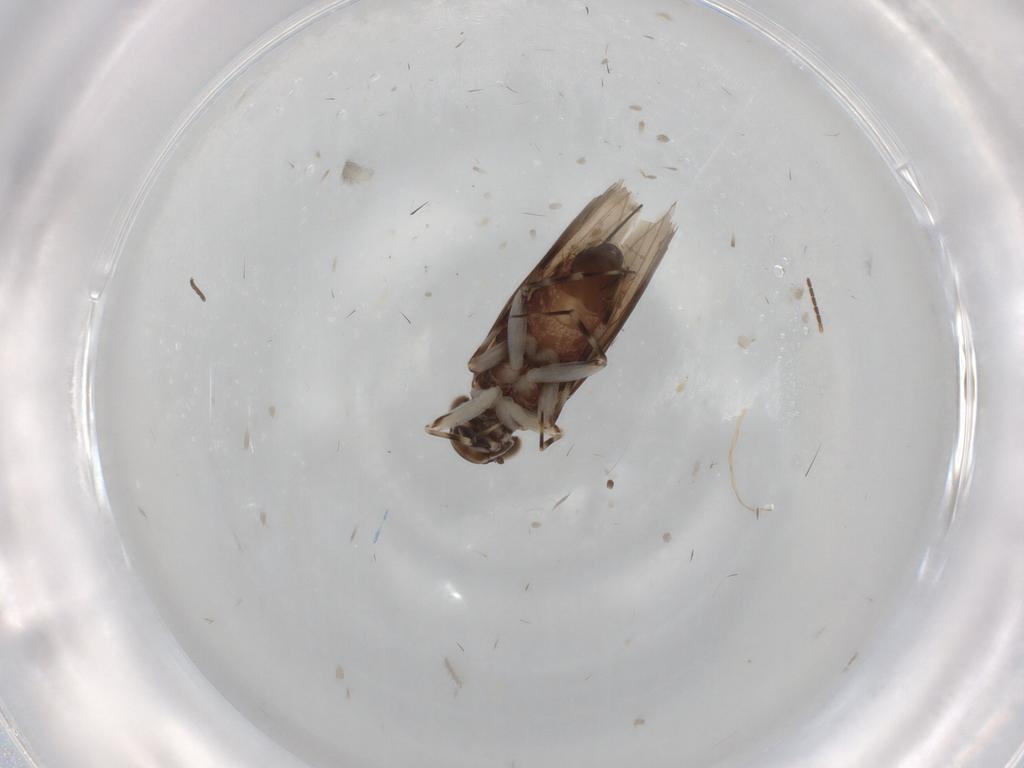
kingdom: Animalia
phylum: Arthropoda
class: Insecta
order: Psocodea
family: Amphientomidae
